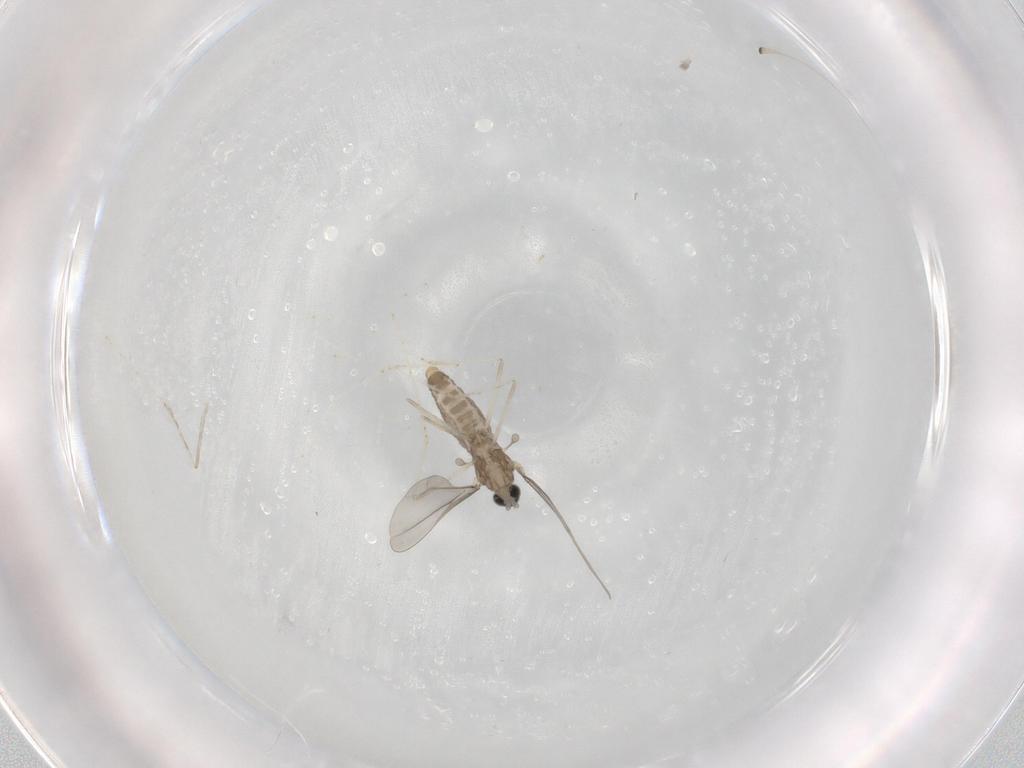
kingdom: Animalia
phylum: Arthropoda
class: Insecta
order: Diptera
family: Cecidomyiidae
